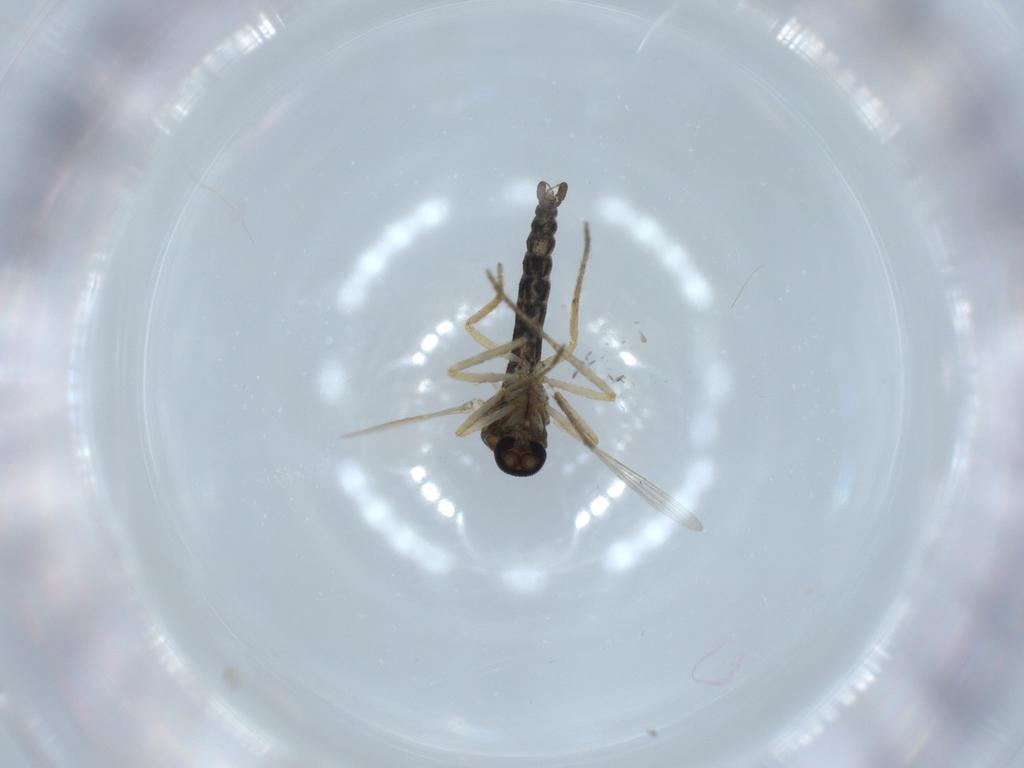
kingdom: Animalia
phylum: Arthropoda
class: Insecta
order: Diptera
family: Ceratopogonidae
